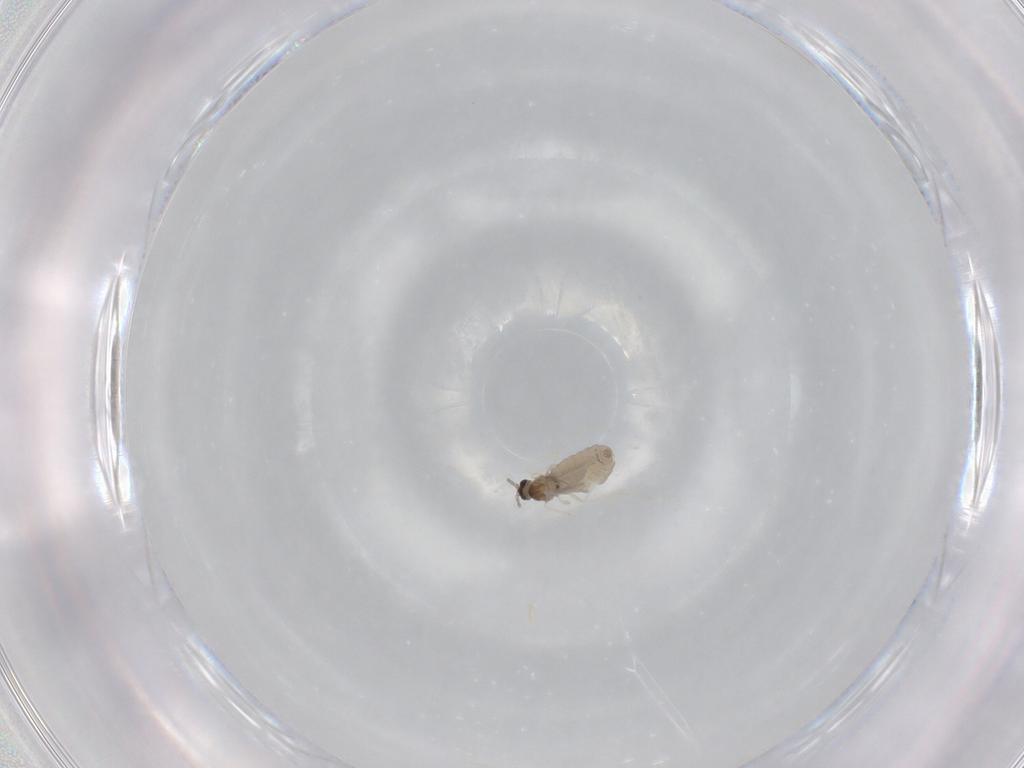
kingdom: Animalia
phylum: Arthropoda
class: Insecta
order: Diptera
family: Cecidomyiidae
